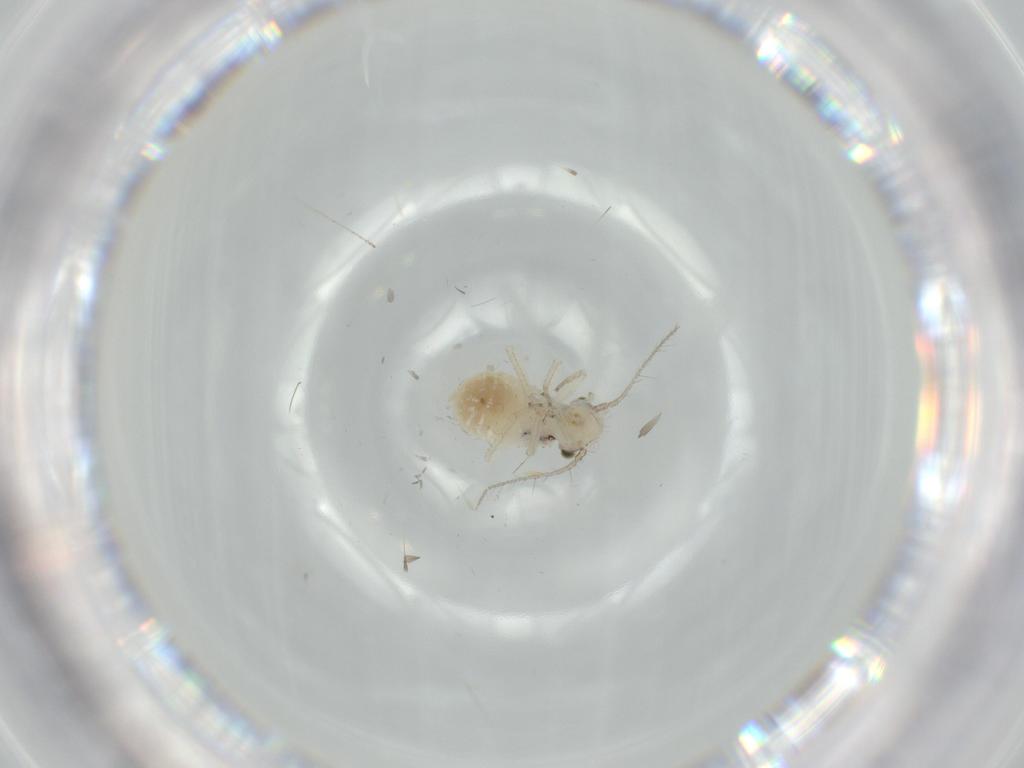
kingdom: Animalia
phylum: Arthropoda
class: Insecta
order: Psocodea
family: Pseudocaeciliidae
